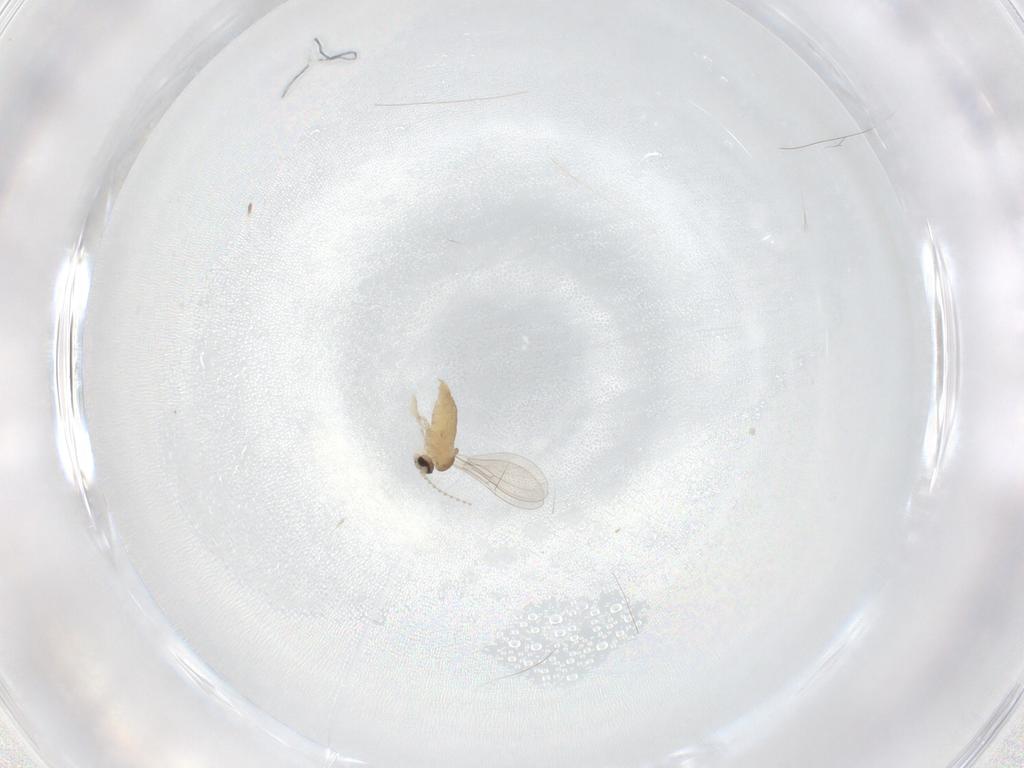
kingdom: Animalia
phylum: Arthropoda
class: Insecta
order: Diptera
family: Cecidomyiidae
